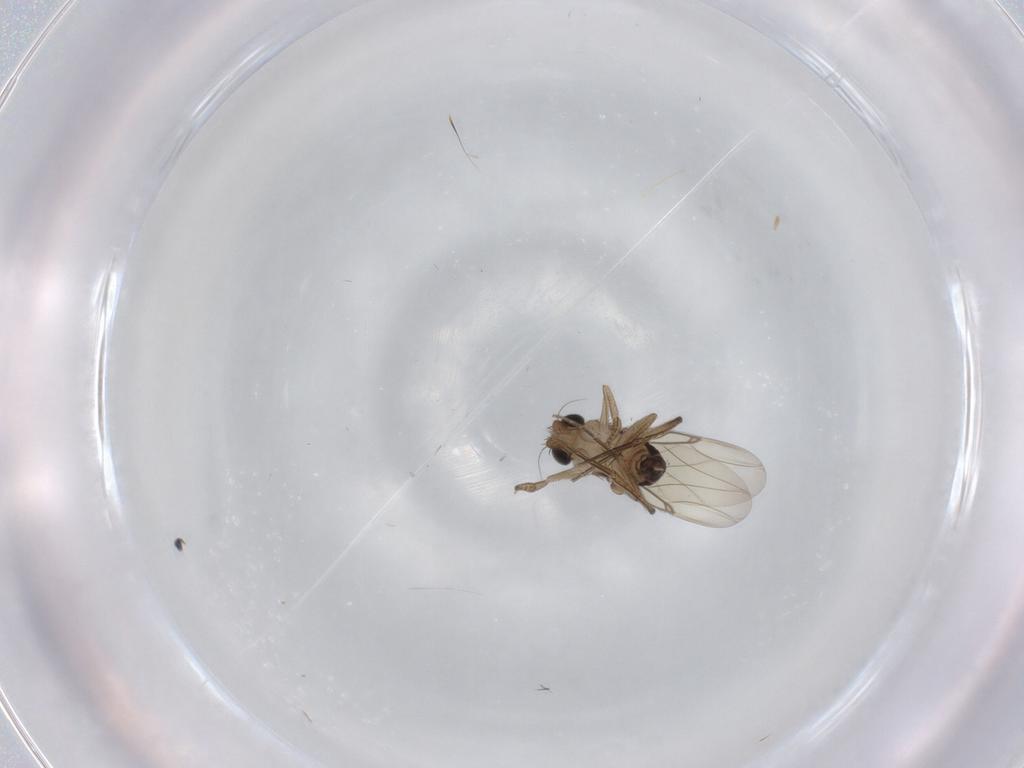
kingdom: Animalia
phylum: Arthropoda
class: Insecta
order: Diptera
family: Phoridae
